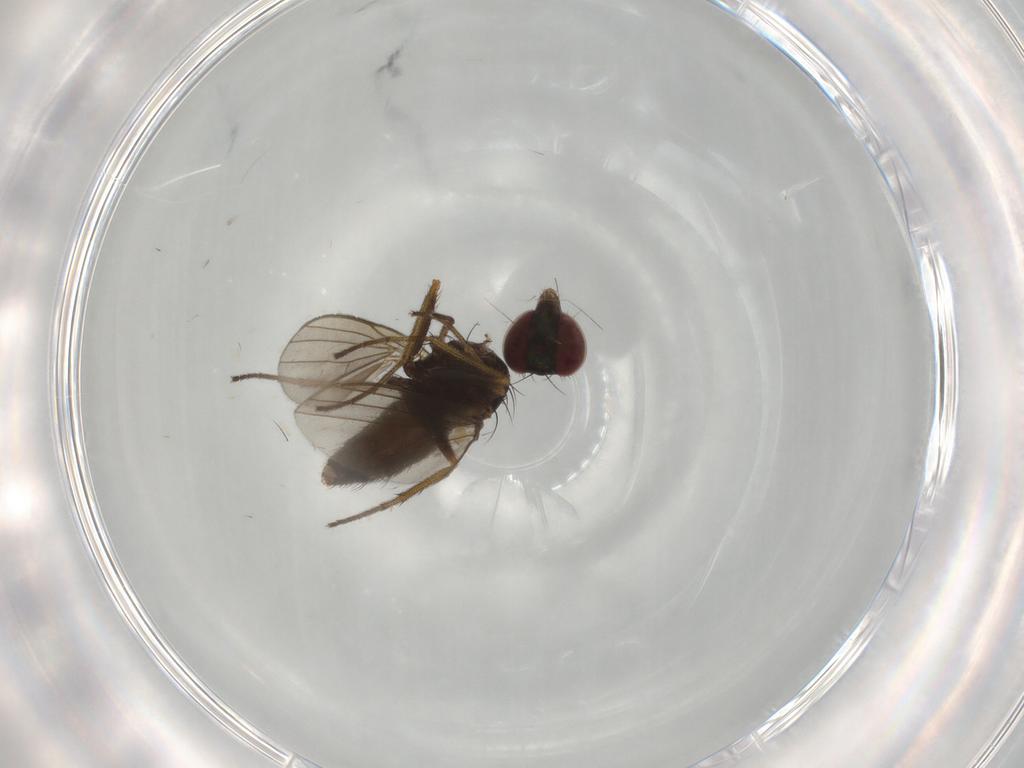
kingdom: Animalia
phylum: Arthropoda
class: Insecta
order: Diptera
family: Dolichopodidae
